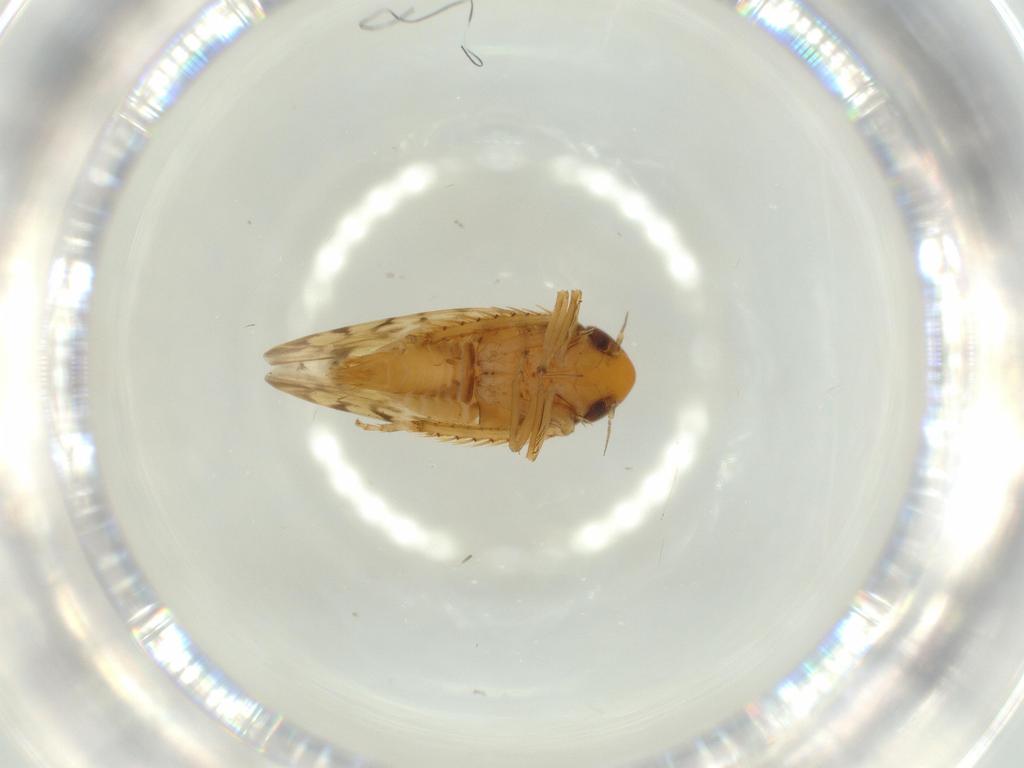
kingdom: Animalia
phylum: Arthropoda
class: Insecta
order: Hemiptera
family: Cicadellidae
